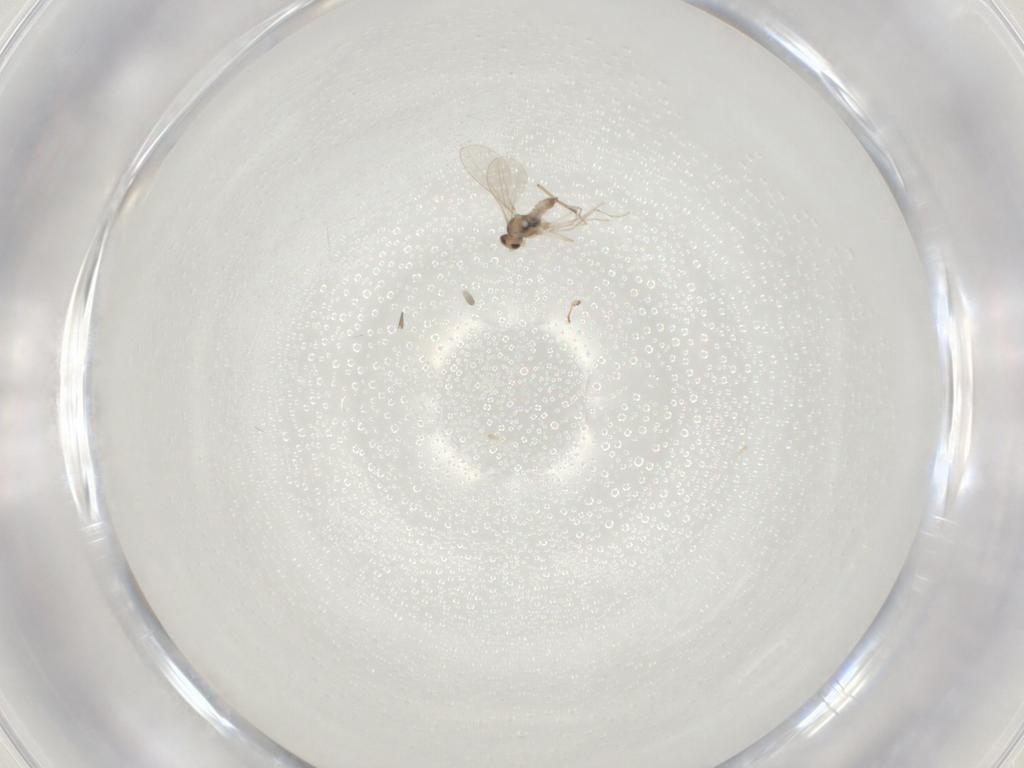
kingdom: Animalia
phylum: Arthropoda
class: Insecta
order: Diptera
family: Chironomidae
